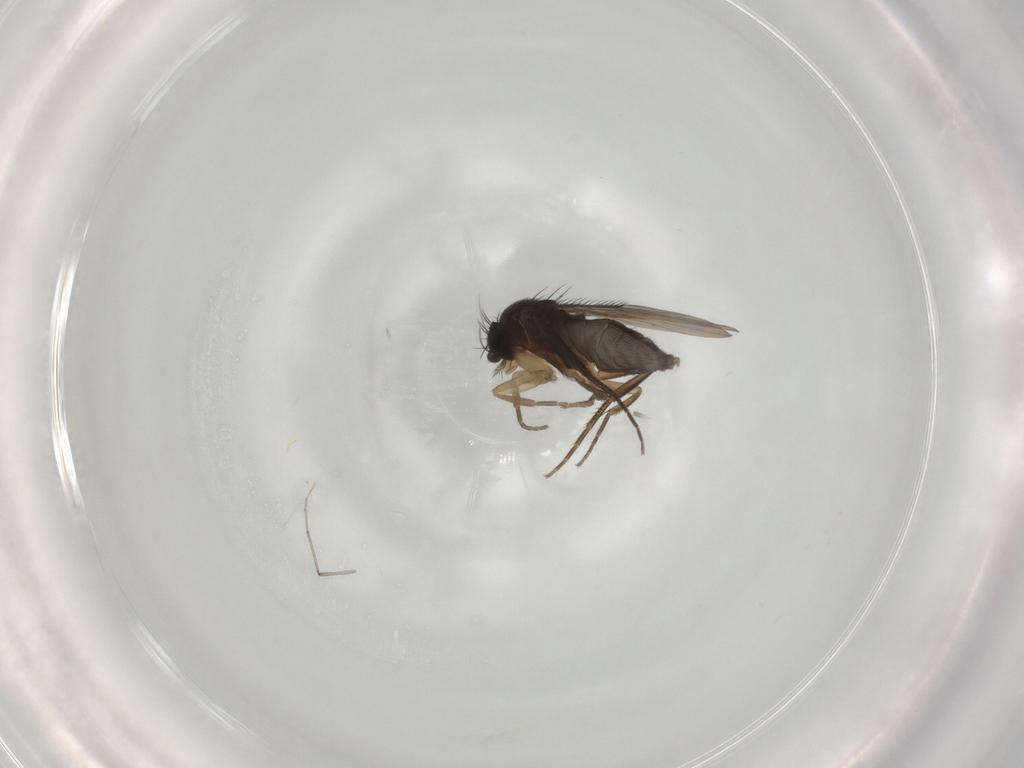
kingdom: Animalia
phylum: Arthropoda
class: Insecta
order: Diptera
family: Phoridae
